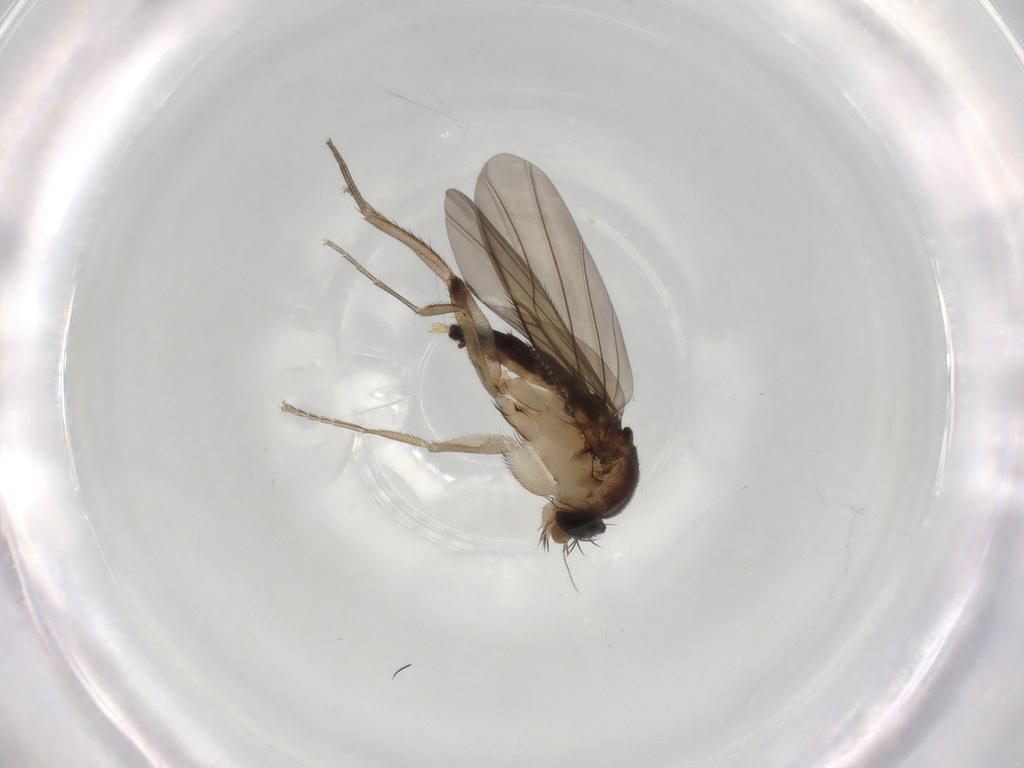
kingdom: Animalia
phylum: Arthropoda
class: Insecta
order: Diptera
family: Phoridae
